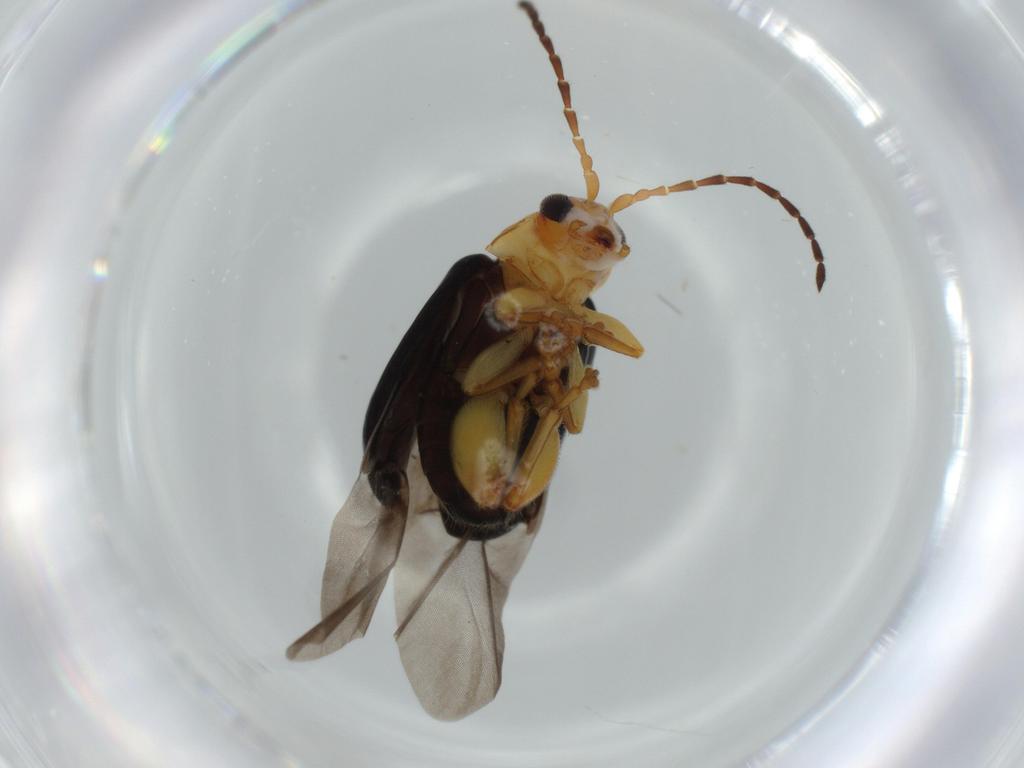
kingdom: Animalia
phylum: Arthropoda
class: Insecta
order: Coleoptera
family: Chrysomelidae
